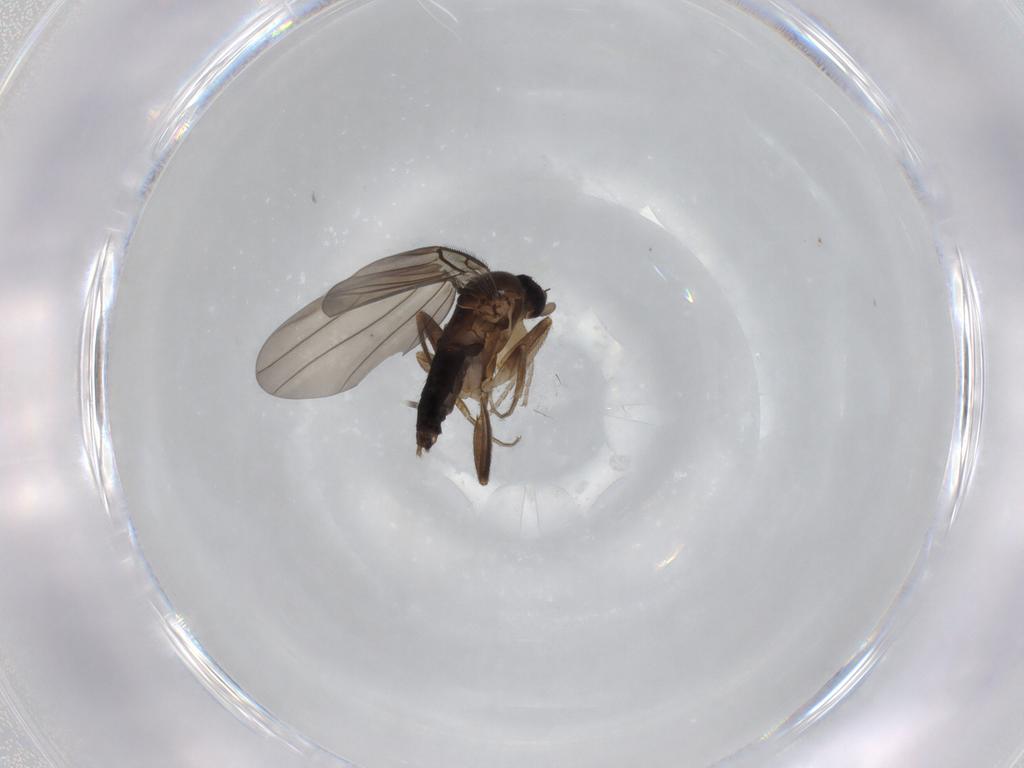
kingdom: Animalia
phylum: Arthropoda
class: Insecta
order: Diptera
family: Phoridae
